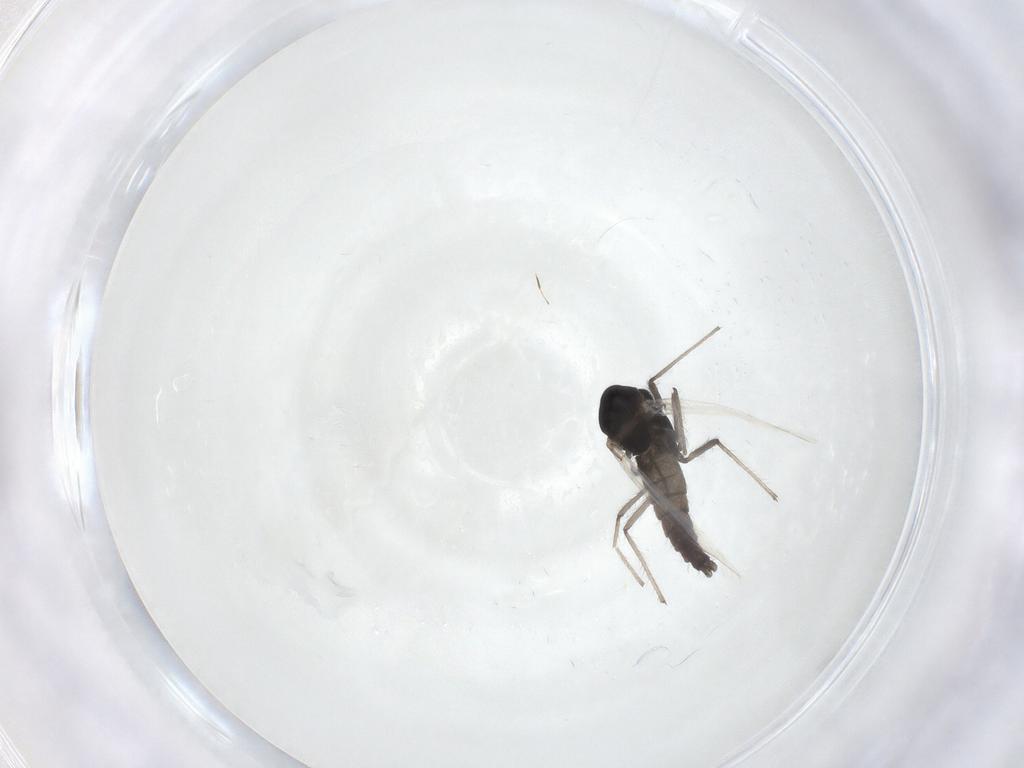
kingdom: Animalia
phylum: Arthropoda
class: Insecta
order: Diptera
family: Chironomidae
